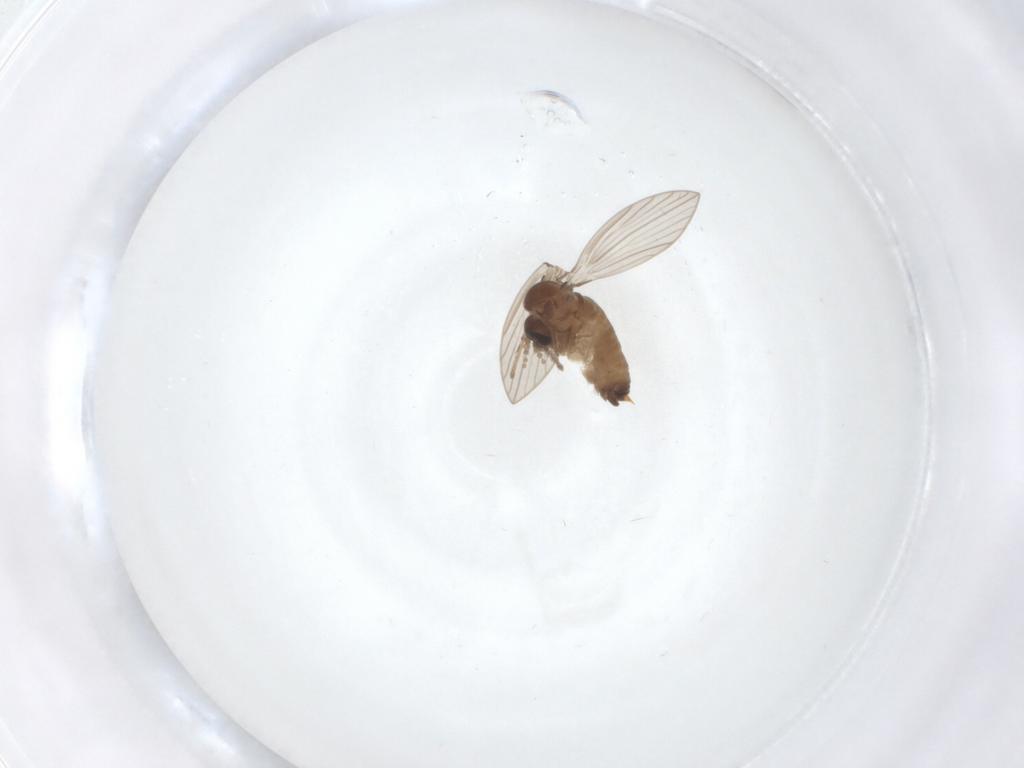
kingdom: Animalia
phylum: Arthropoda
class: Insecta
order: Diptera
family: Psychodidae
